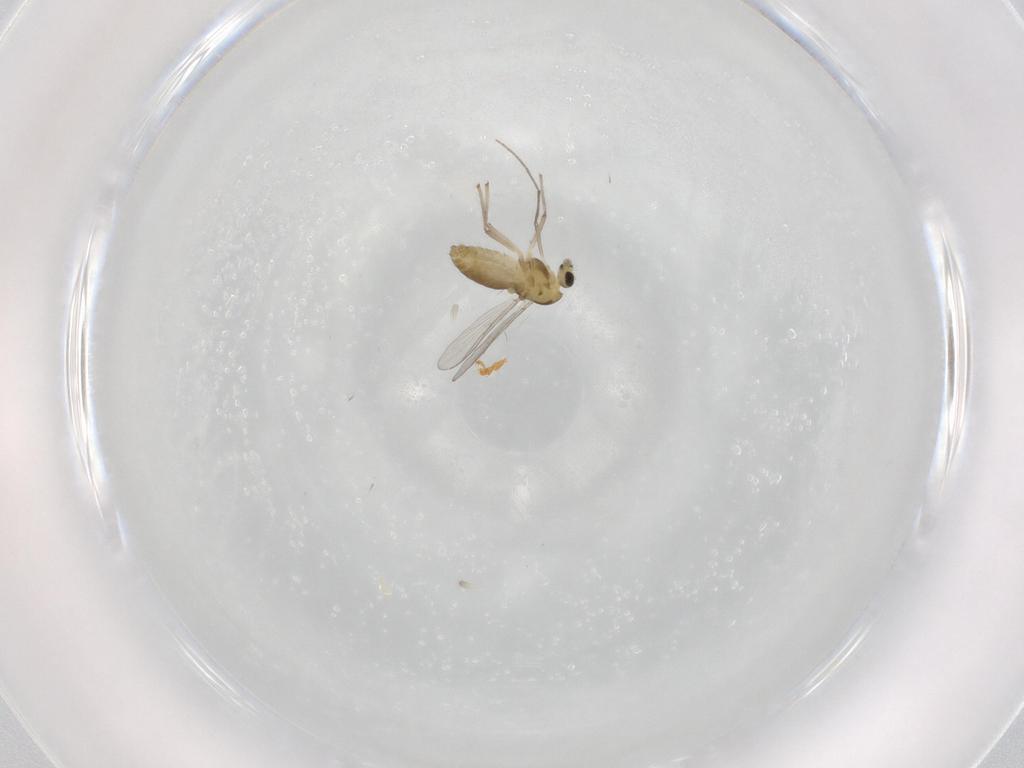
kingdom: Animalia
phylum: Arthropoda
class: Insecta
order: Diptera
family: Chironomidae
